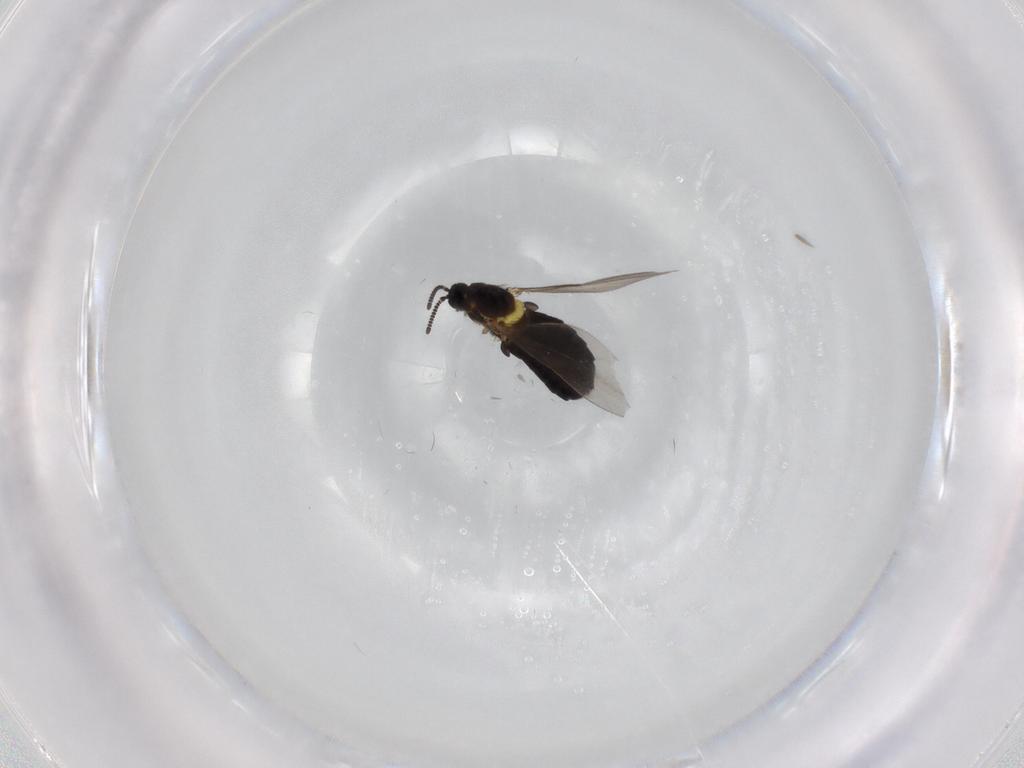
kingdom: Animalia
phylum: Arthropoda
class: Insecta
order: Diptera
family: Scatopsidae
